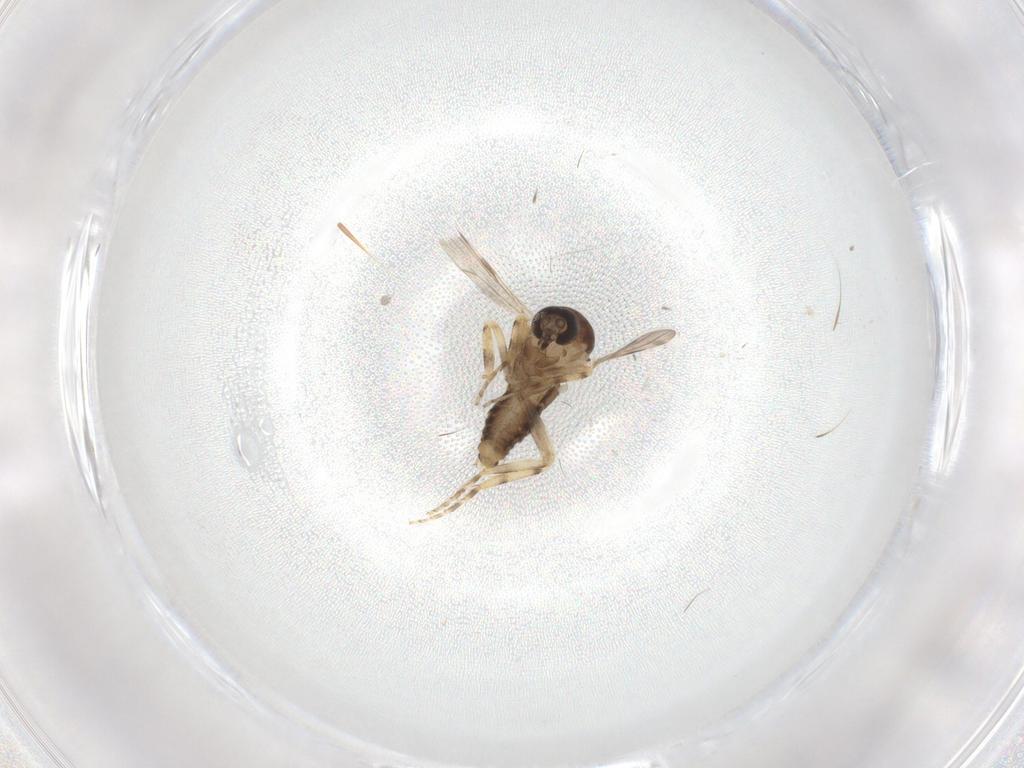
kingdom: Animalia
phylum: Arthropoda
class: Insecta
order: Diptera
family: Ceratopogonidae
